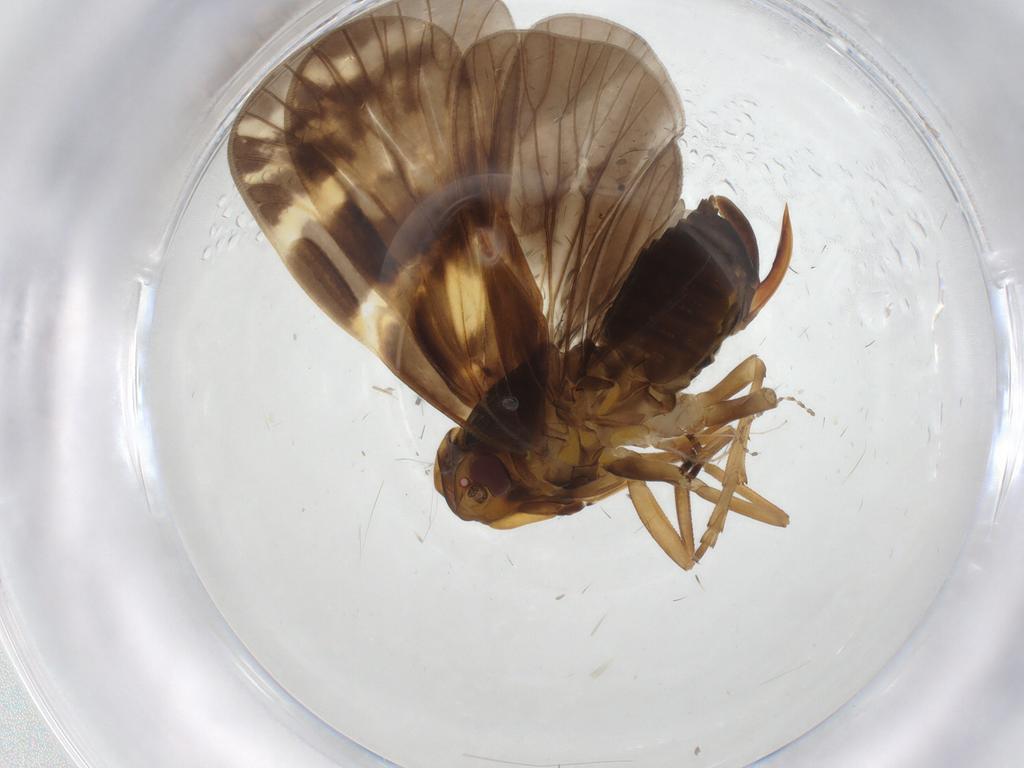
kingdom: Animalia
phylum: Arthropoda
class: Insecta
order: Hemiptera
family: Cixiidae
